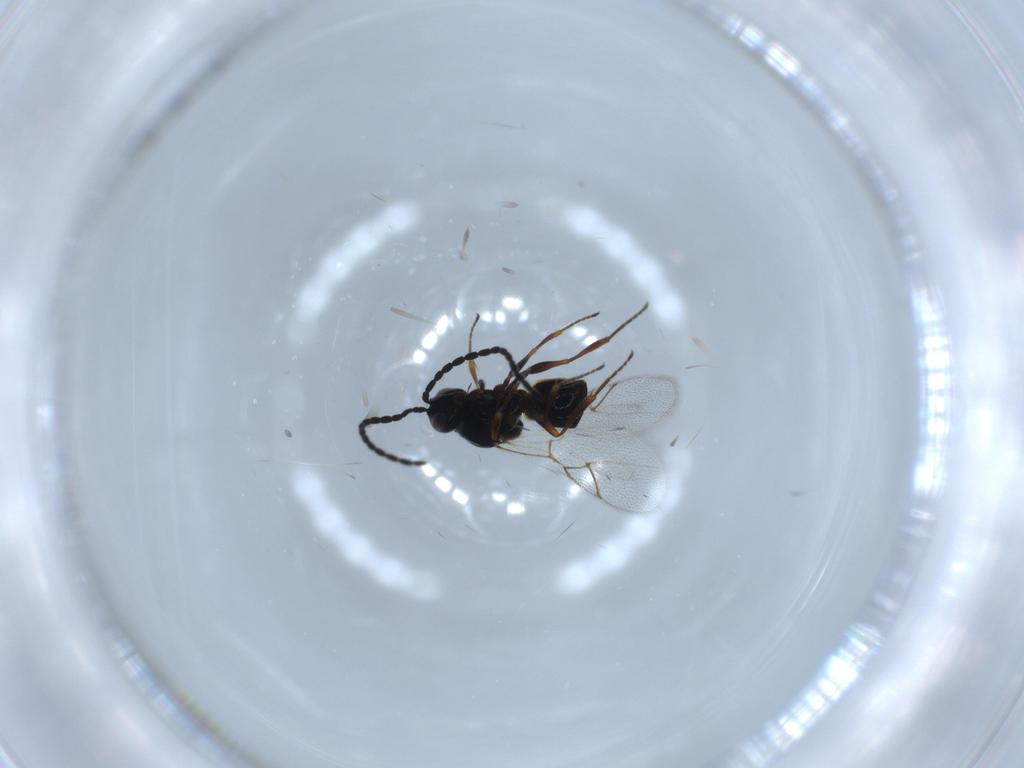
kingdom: Animalia
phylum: Arthropoda
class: Insecta
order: Hymenoptera
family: Figitidae
